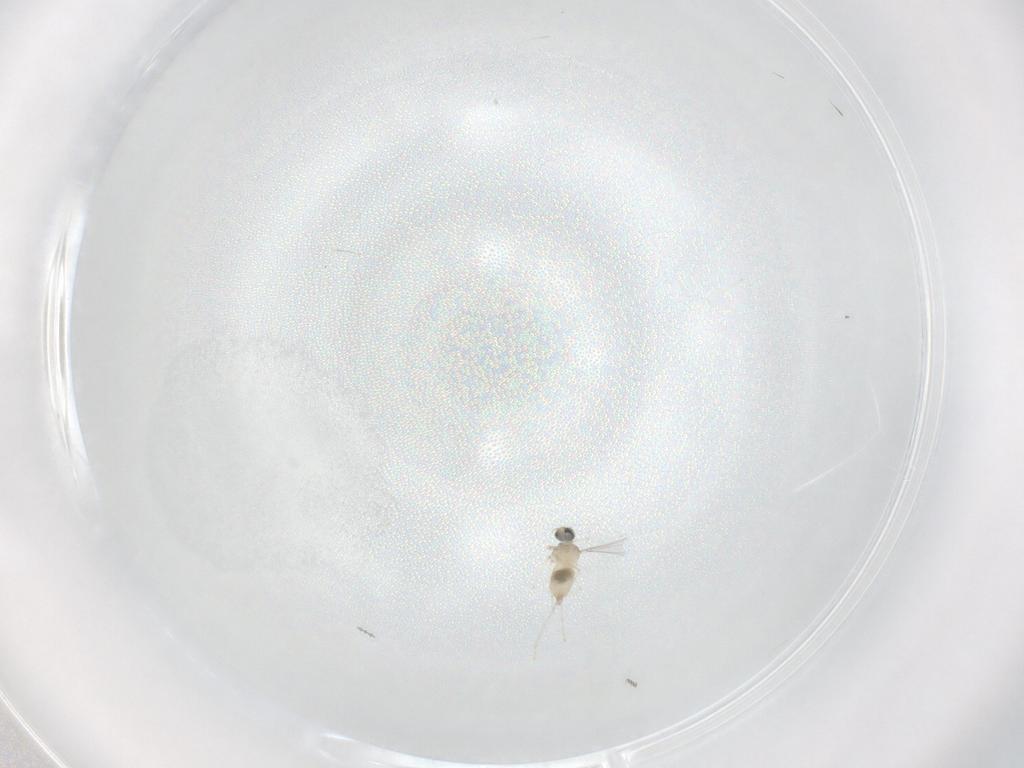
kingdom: Animalia
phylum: Arthropoda
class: Insecta
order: Diptera
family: Cecidomyiidae
